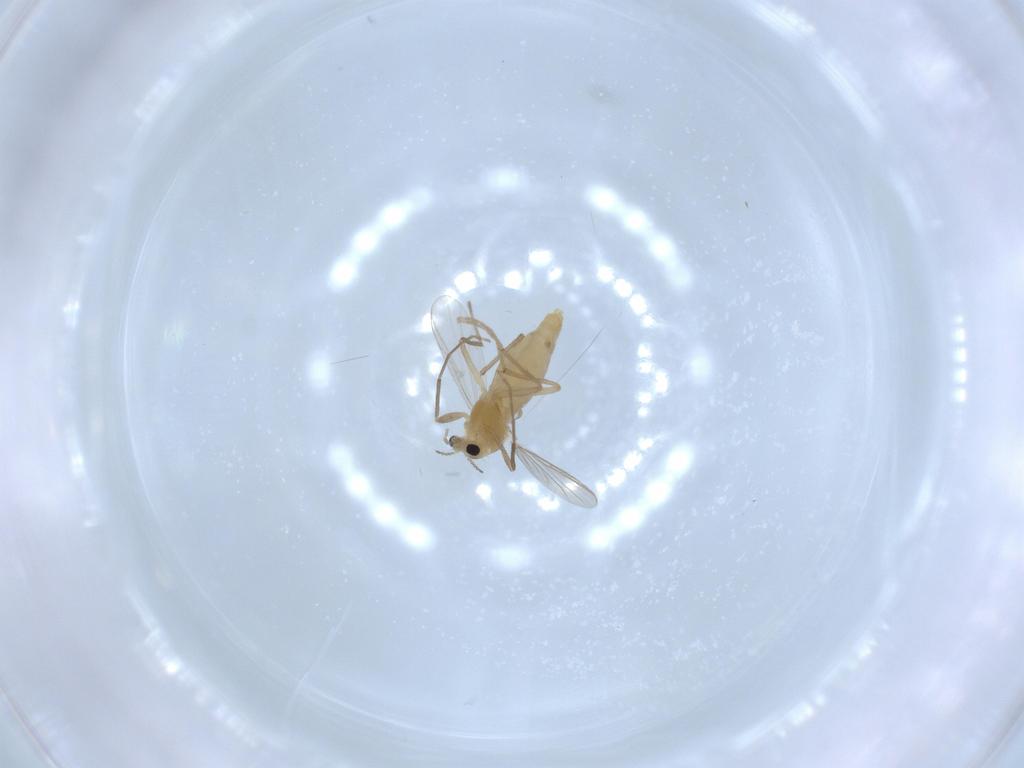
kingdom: Animalia
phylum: Arthropoda
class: Insecta
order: Diptera
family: Chironomidae
